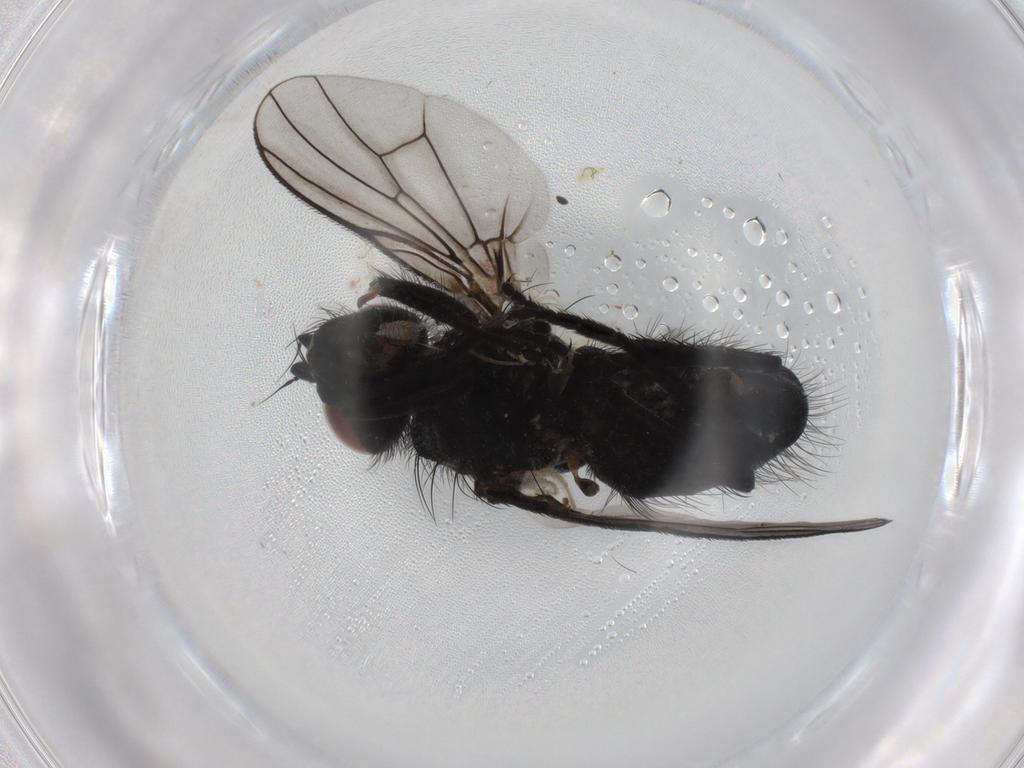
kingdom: Animalia
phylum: Arthropoda
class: Insecta
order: Diptera
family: Muscidae
